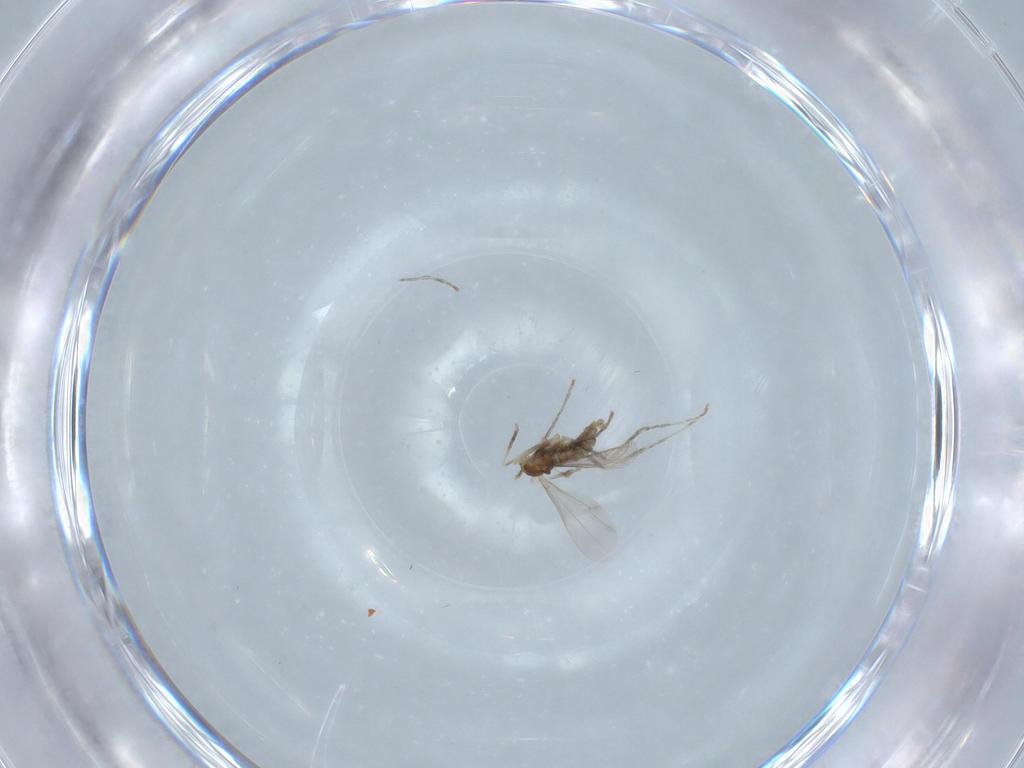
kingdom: Animalia
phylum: Arthropoda
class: Insecta
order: Diptera
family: Cecidomyiidae
